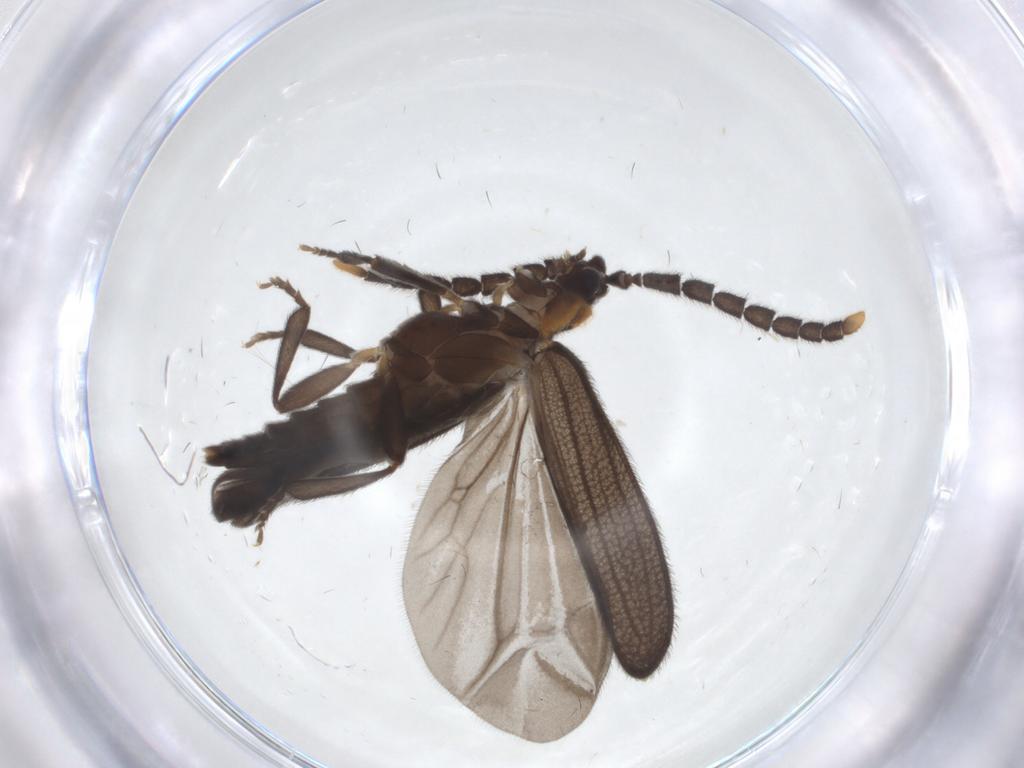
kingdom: Animalia
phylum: Arthropoda
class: Insecta
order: Coleoptera
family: Lycidae
